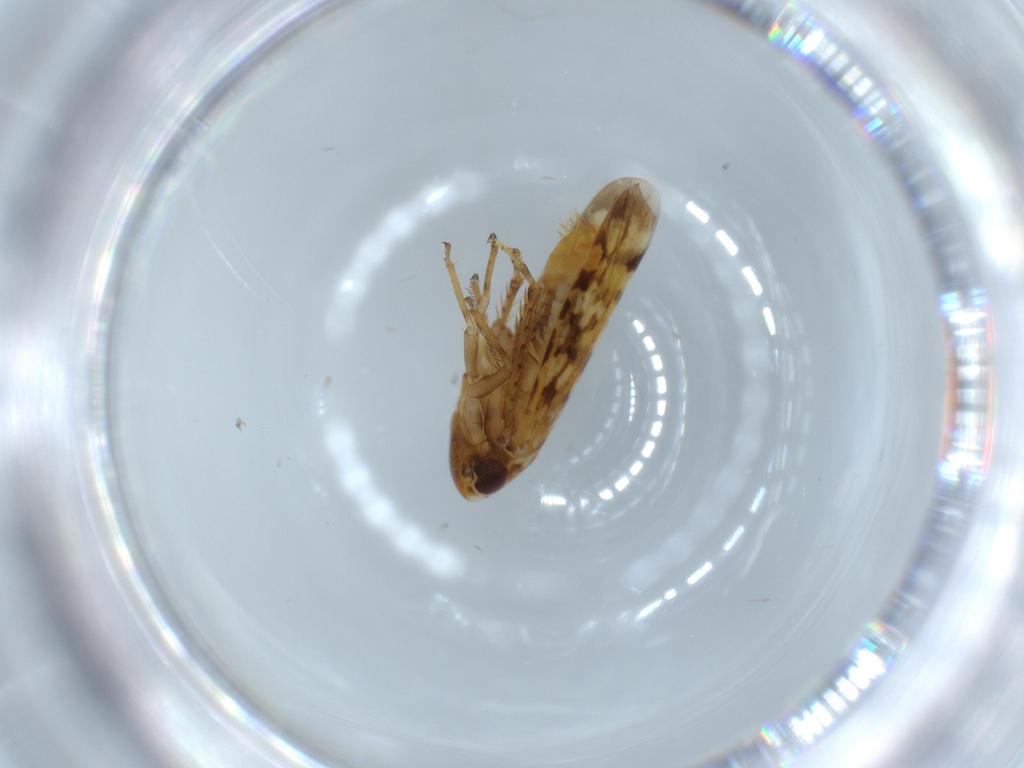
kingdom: Animalia
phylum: Arthropoda
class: Insecta
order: Hemiptera
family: Cicadellidae
